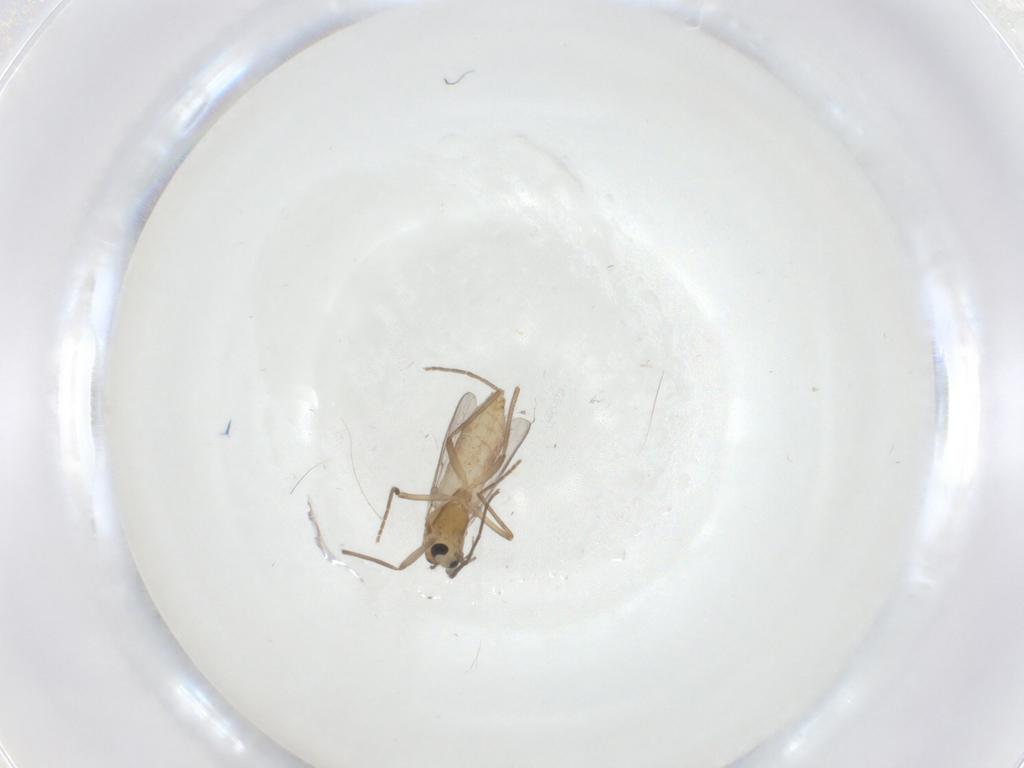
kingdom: Animalia
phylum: Arthropoda
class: Insecta
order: Diptera
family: Chironomidae
